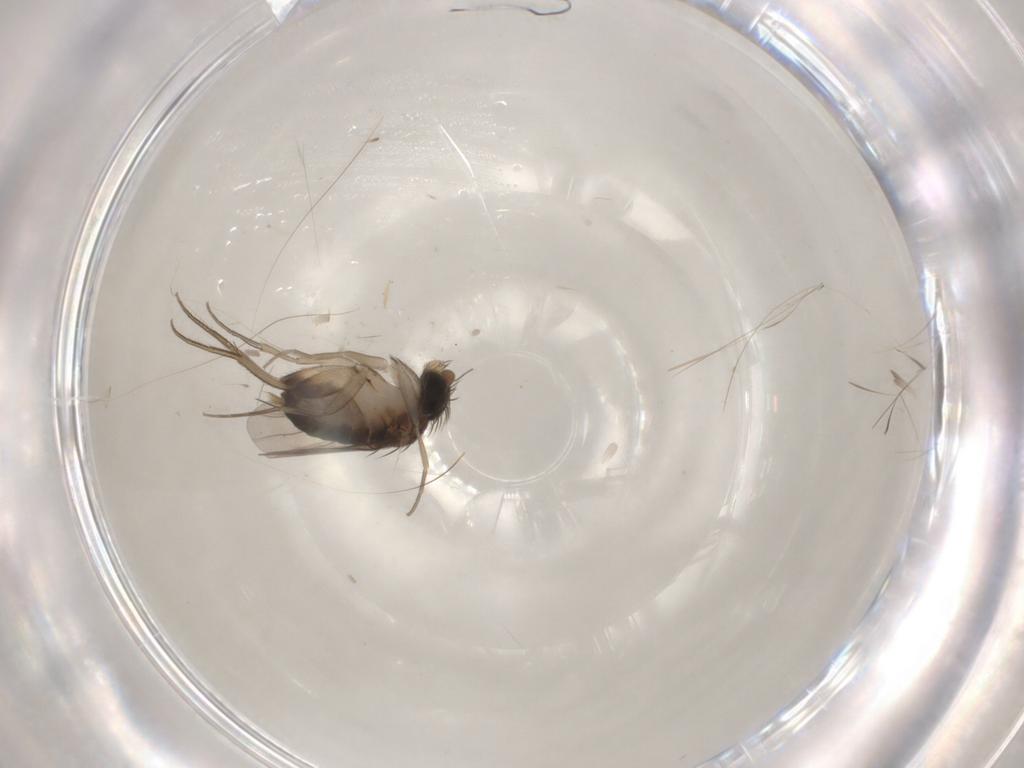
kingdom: Animalia
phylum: Arthropoda
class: Insecta
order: Diptera
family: Phoridae
